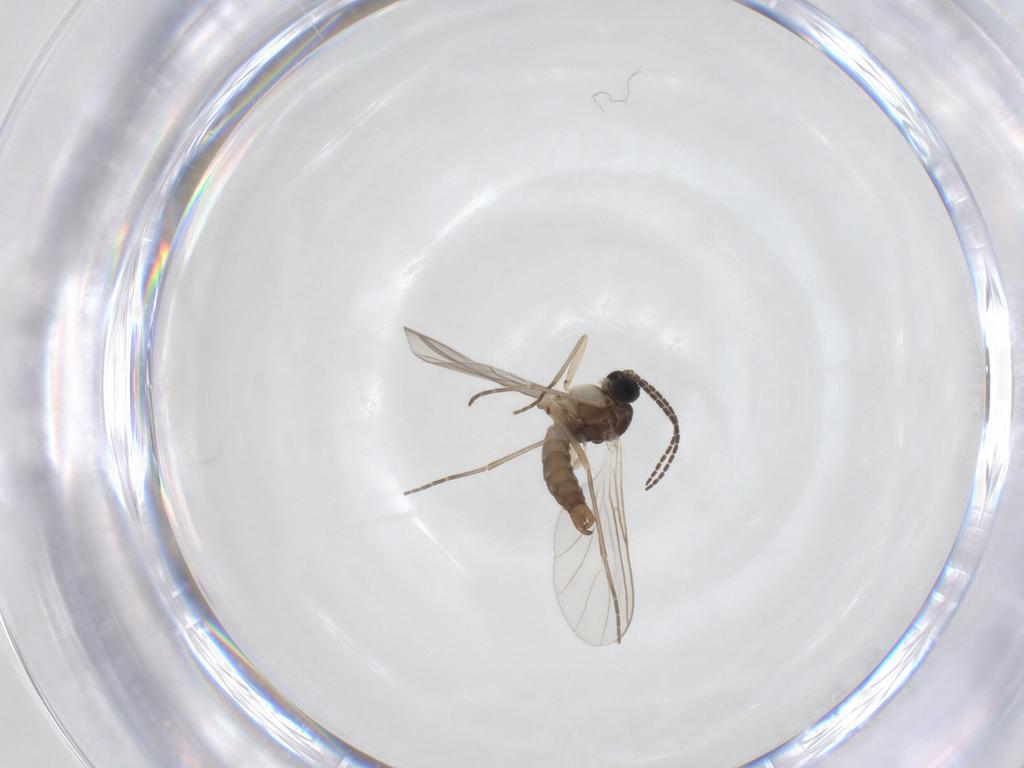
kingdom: Animalia
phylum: Arthropoda
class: Insecta
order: Diptera
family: Sciaridae
